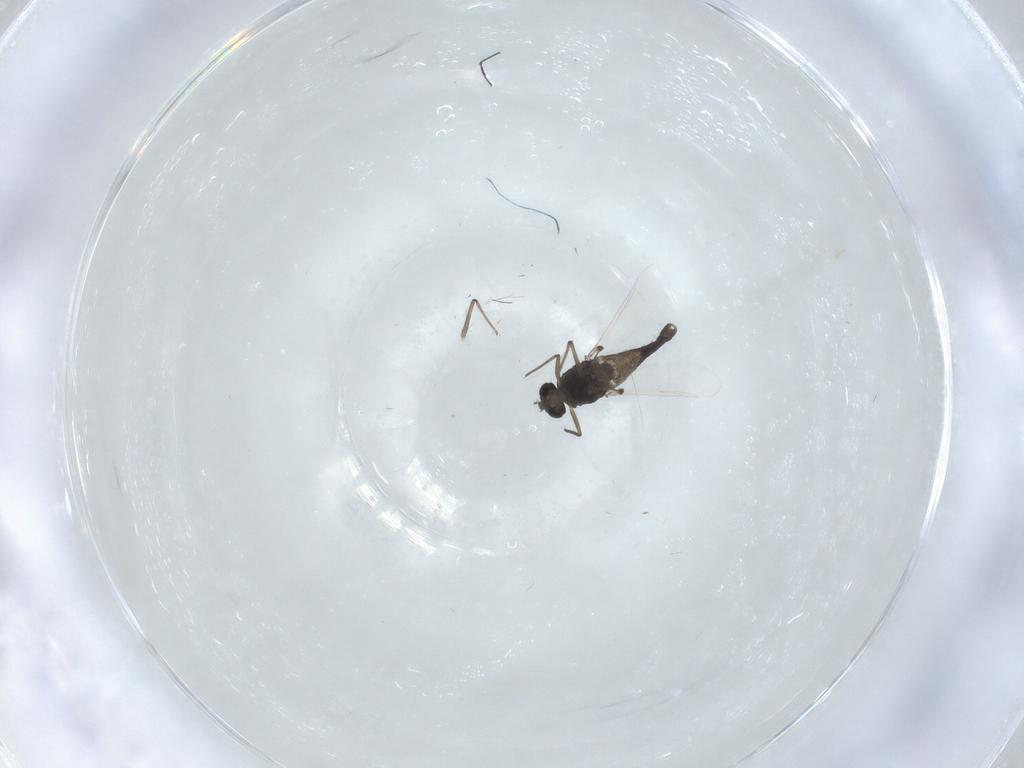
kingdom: Animalia
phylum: Arthropoda
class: Insecta
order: Diptera
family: Chironomidae
